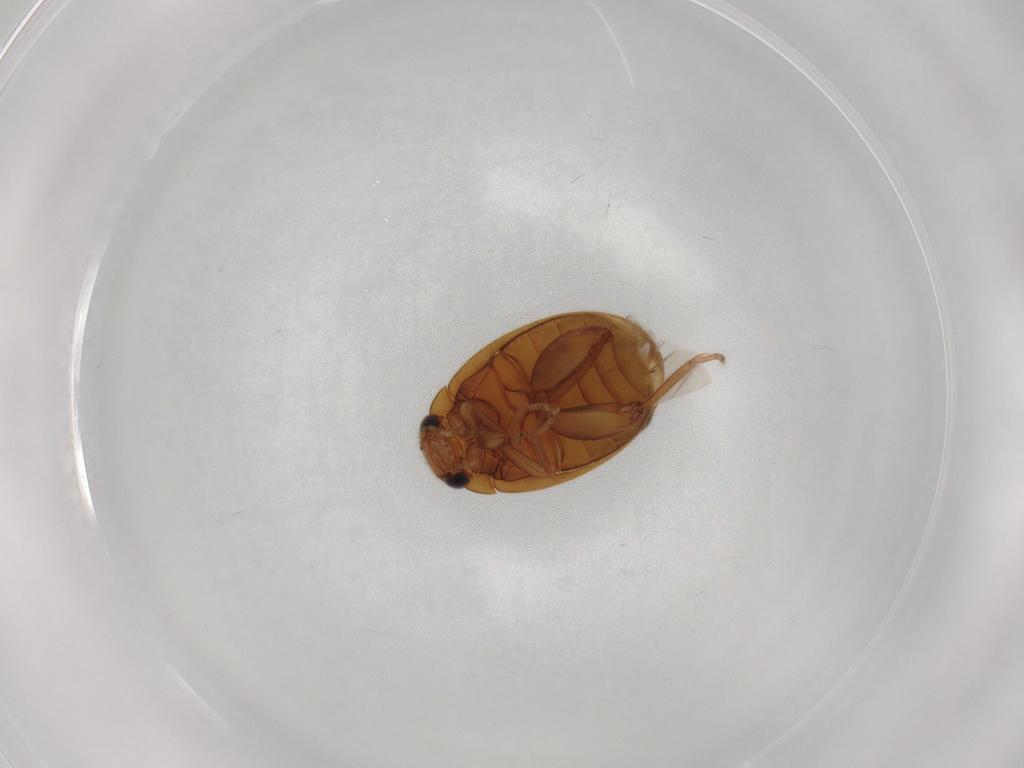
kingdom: Animalia
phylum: Arthropoda
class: Insecta
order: Coleoptera
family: Scirtidae
